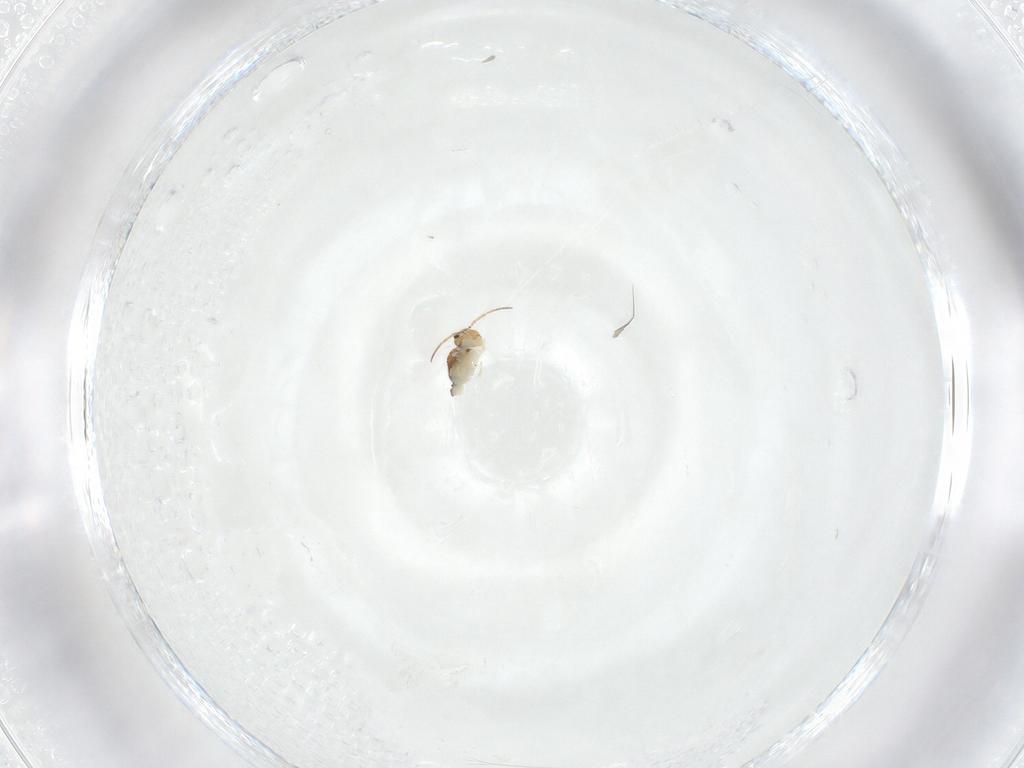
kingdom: Animalia
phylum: Arthropoda
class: Collembola
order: Symphypleona
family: Bourletiellidae
